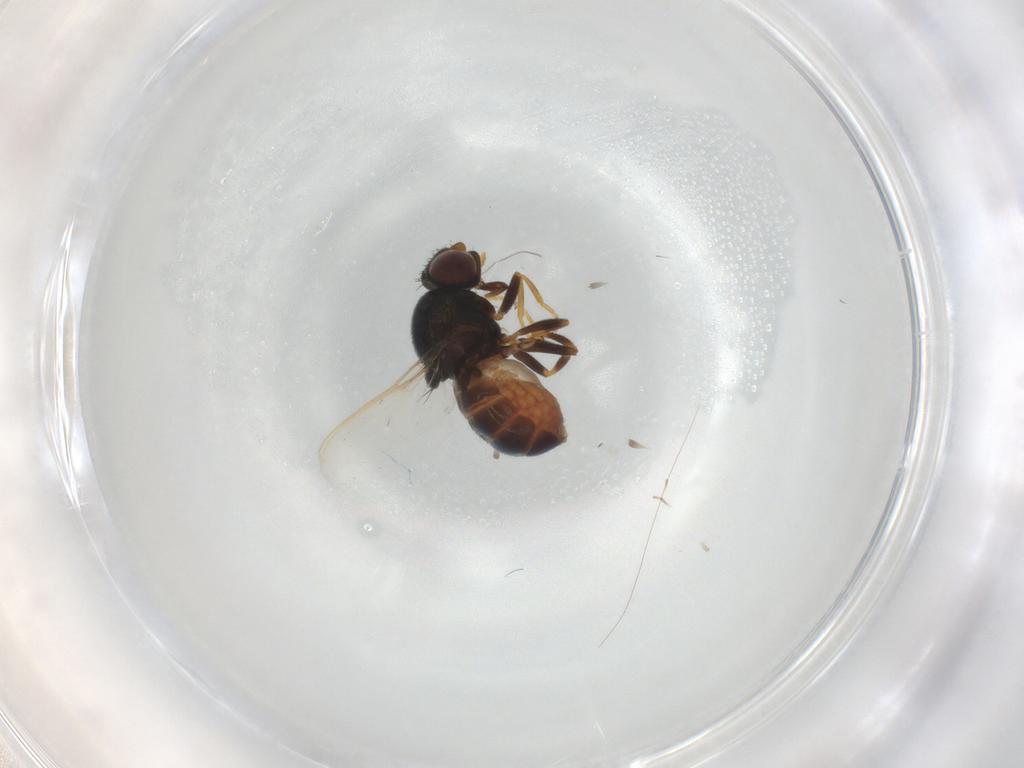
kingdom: Animalia
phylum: Arthropoda
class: Insecta
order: Diptera
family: Chloropidae
